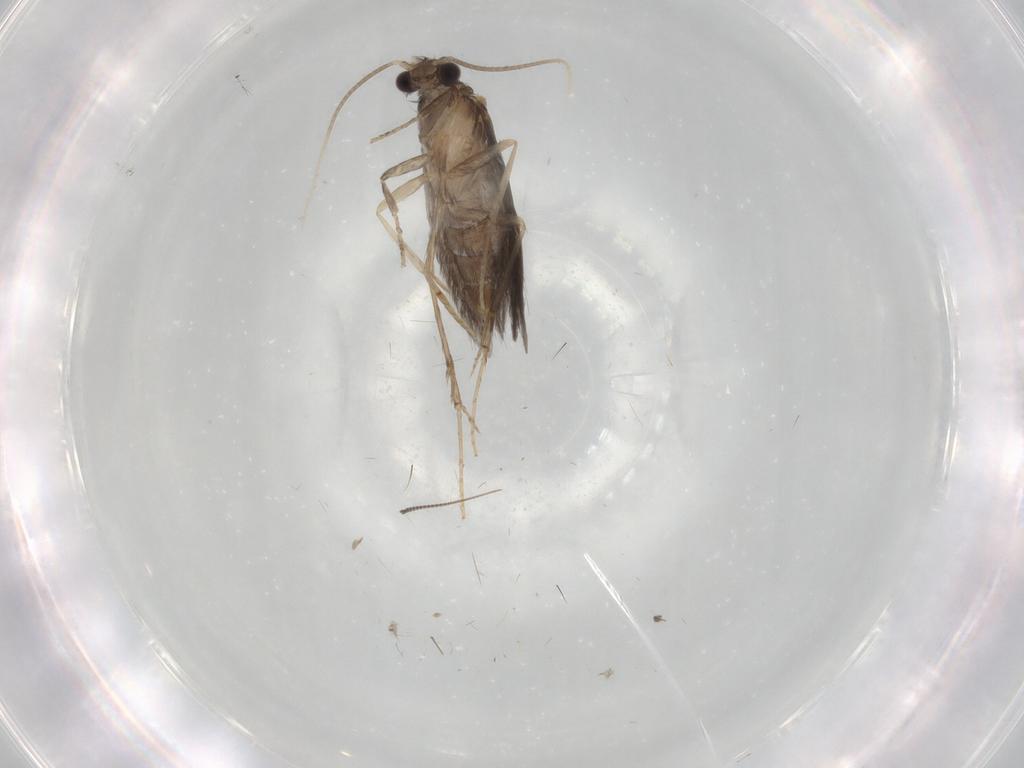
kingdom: Animalia
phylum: Arthropoda
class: Insecta
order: Trichoptera
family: Hydroptilidae
